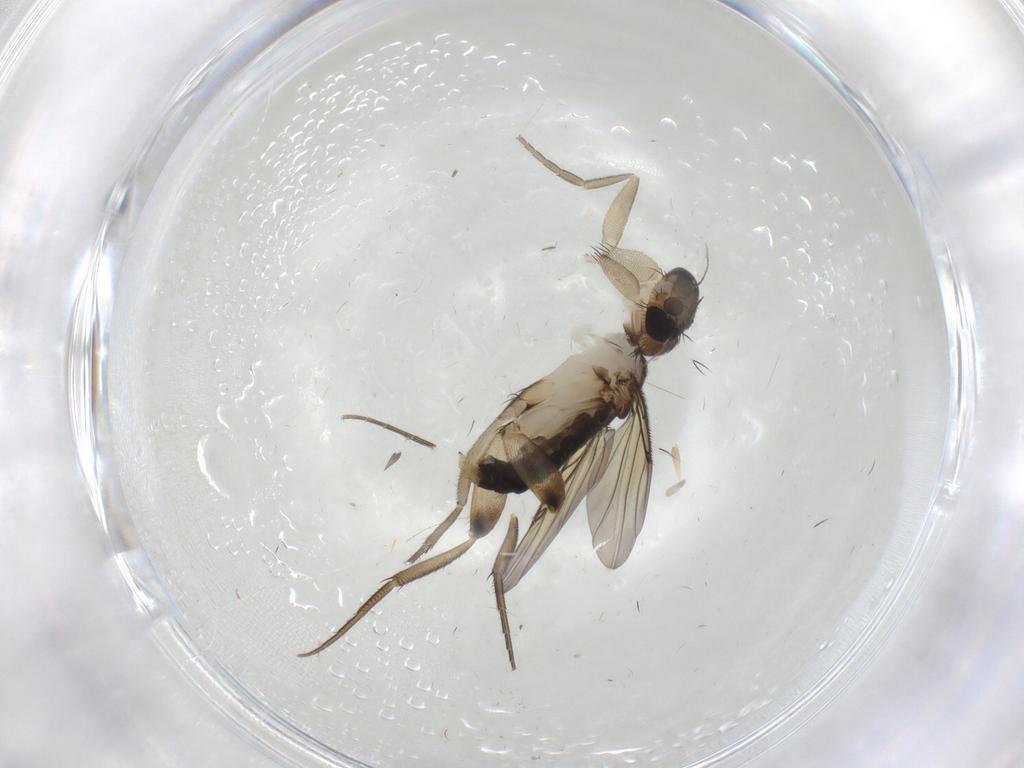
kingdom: Animalia
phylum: Arthropoda
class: Insecta
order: Diptera
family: Phoridae
